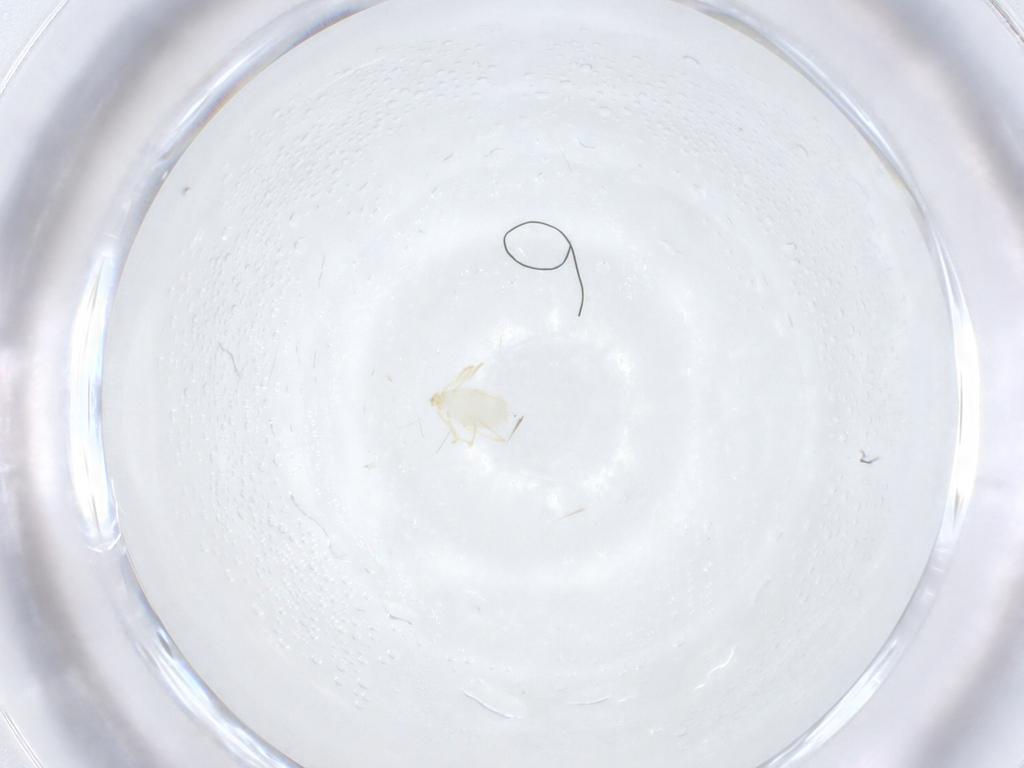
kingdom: Animalia
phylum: Arthropoda
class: Arachnida
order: Trombidiformes
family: Erythraeidae
